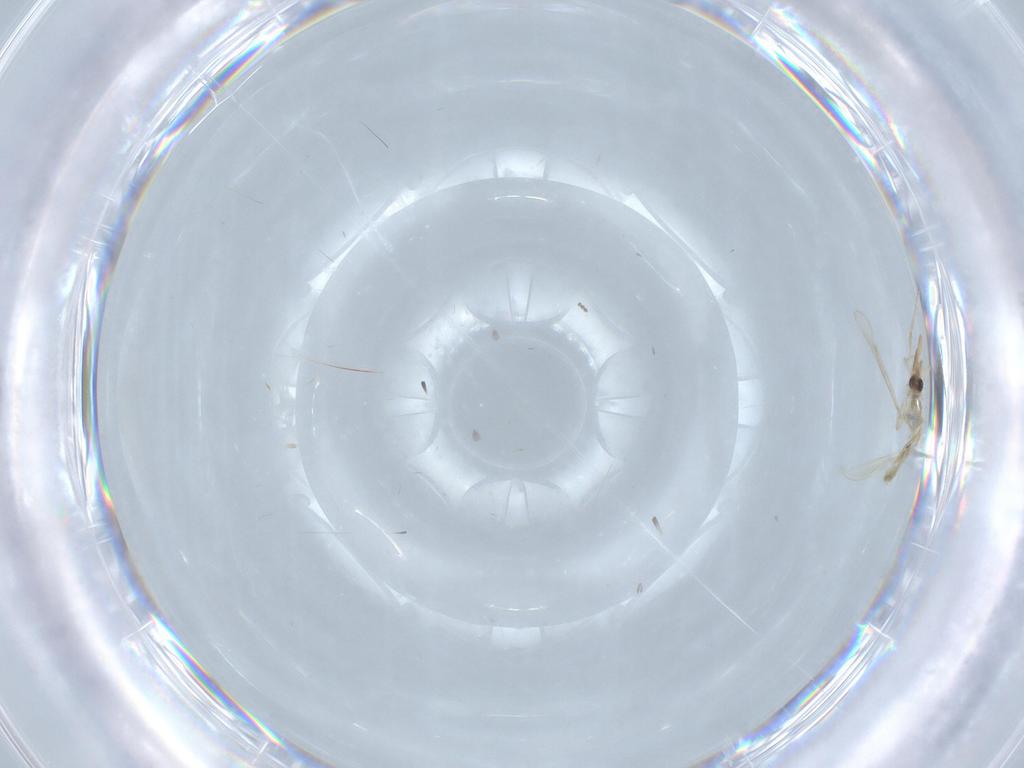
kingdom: Animalia
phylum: Arthropoda
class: Insecta
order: Diptera
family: Chironomidae
